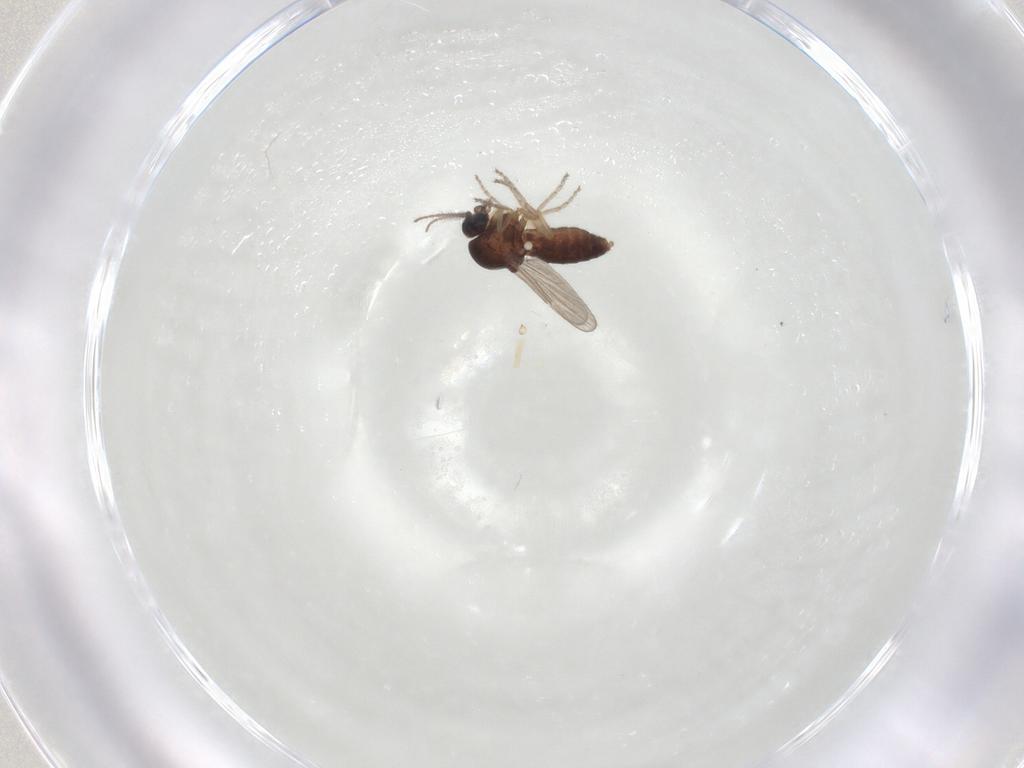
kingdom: Animalia
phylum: Arthropoda
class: Insecta
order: Diptera
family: Ceratopogonidae
